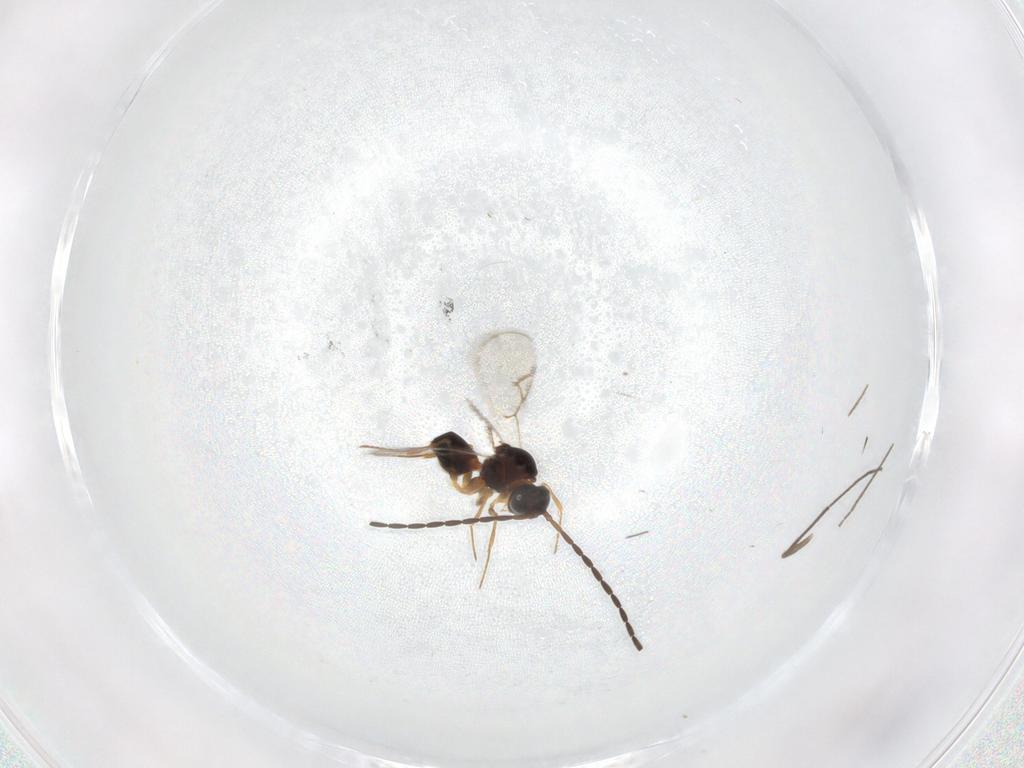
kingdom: Animalia
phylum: Arthropoda
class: Insecta
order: Hymenoptera
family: Figitidae
